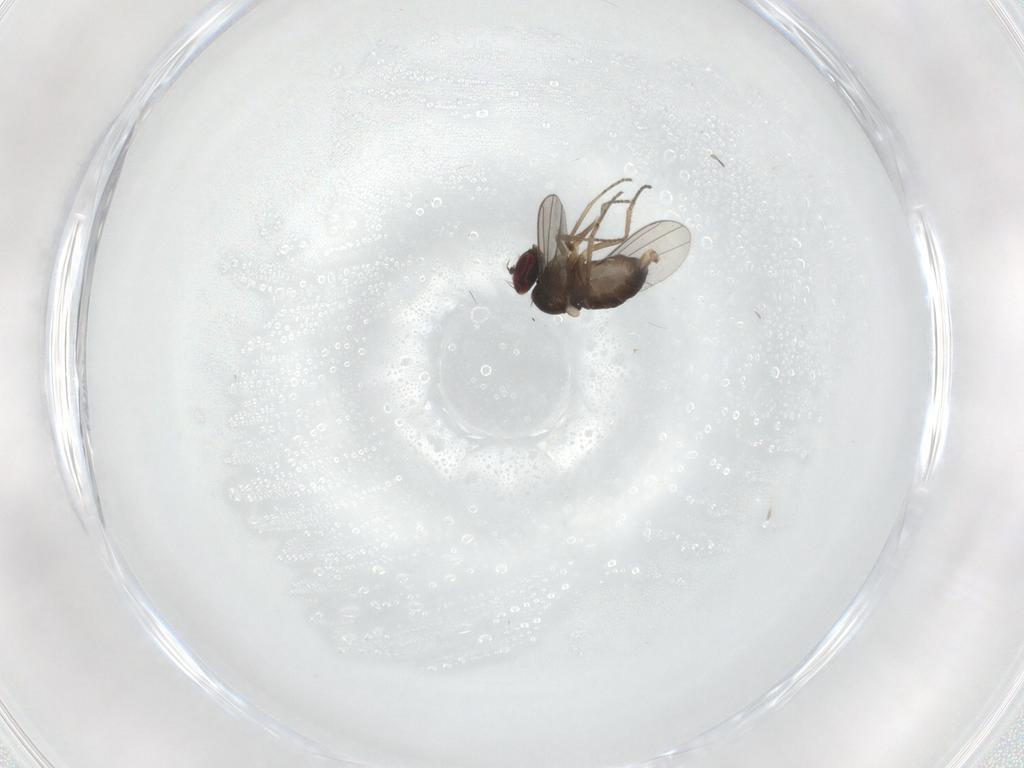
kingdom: Animalia
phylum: Arthropoda
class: Insecta
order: Diptera
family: Dolichopodidae
